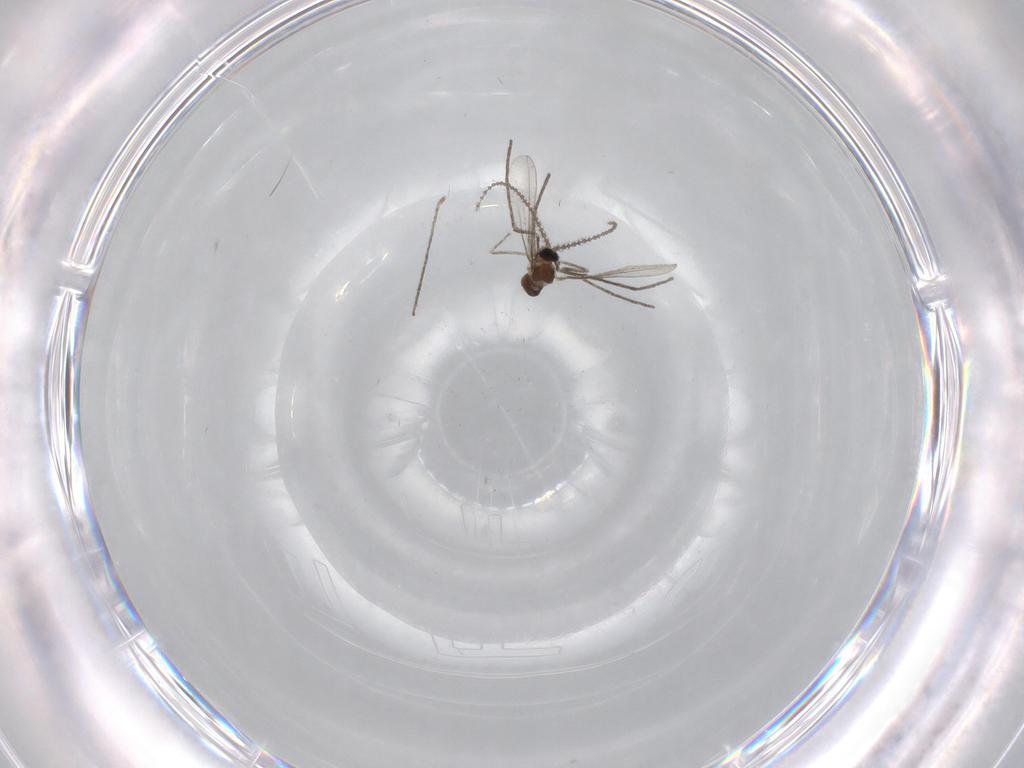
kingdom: Animalia
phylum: Arthropoda
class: Insecta
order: Diptera
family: Cecidomyiidae
